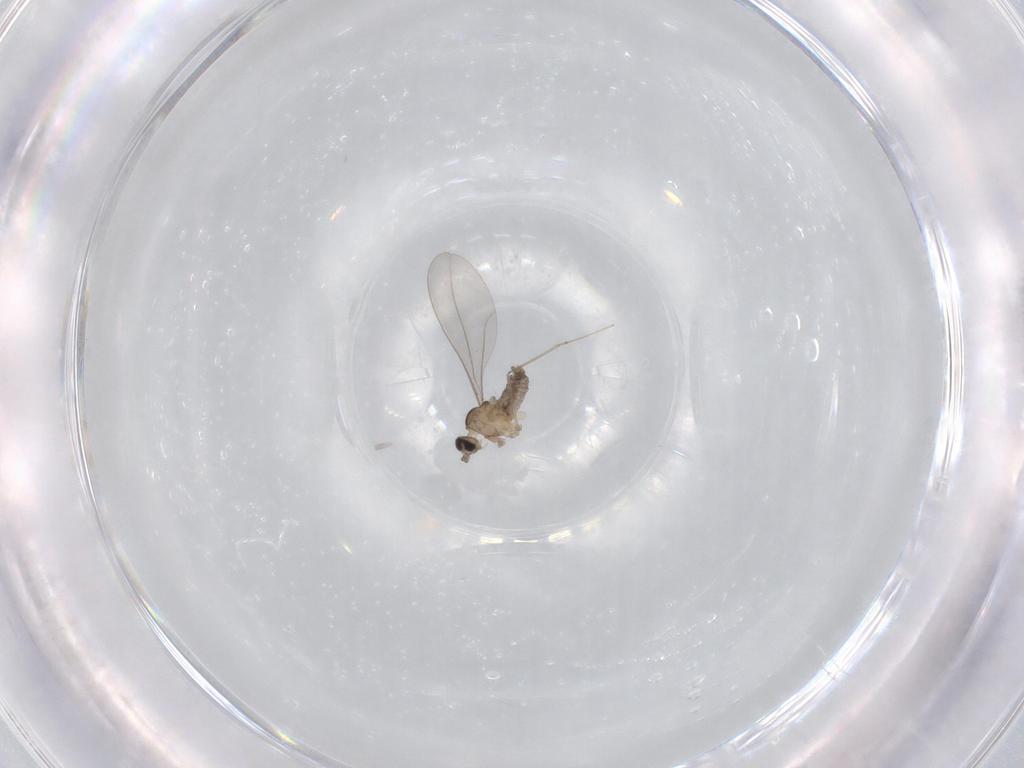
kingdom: Animalia
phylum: Arthropoda
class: Insecta
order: Diptera
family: Cecidomyiidae
